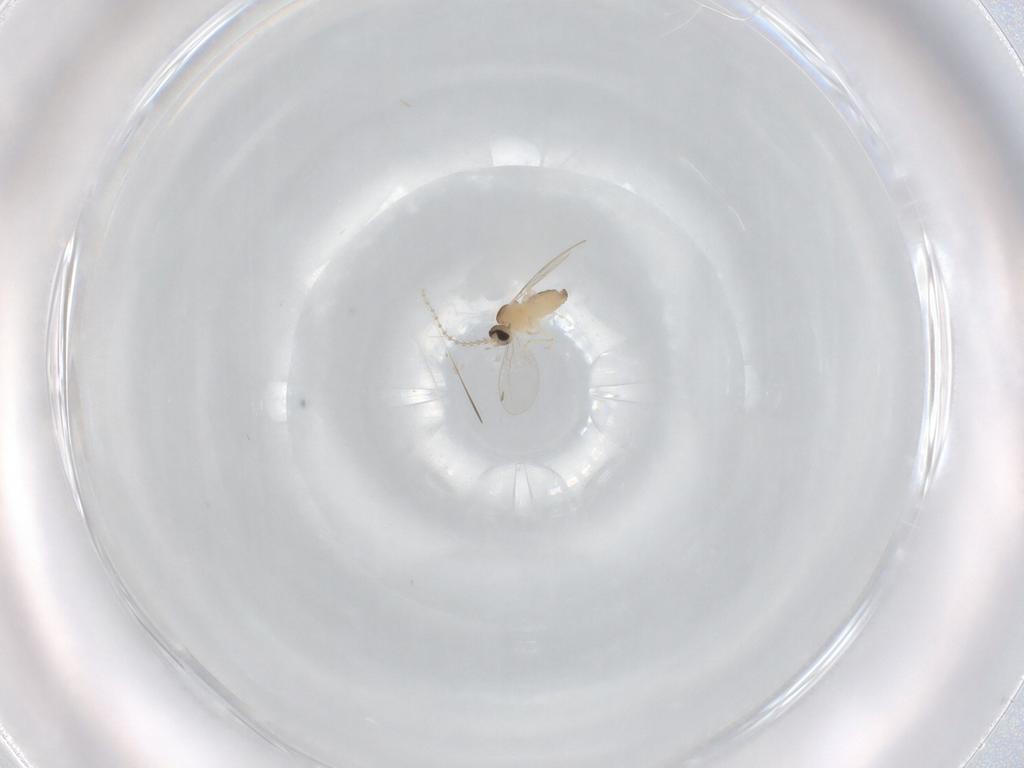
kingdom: Animalia
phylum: Arthropoda
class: Insecta
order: Diptera
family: Cecidomyiidae
